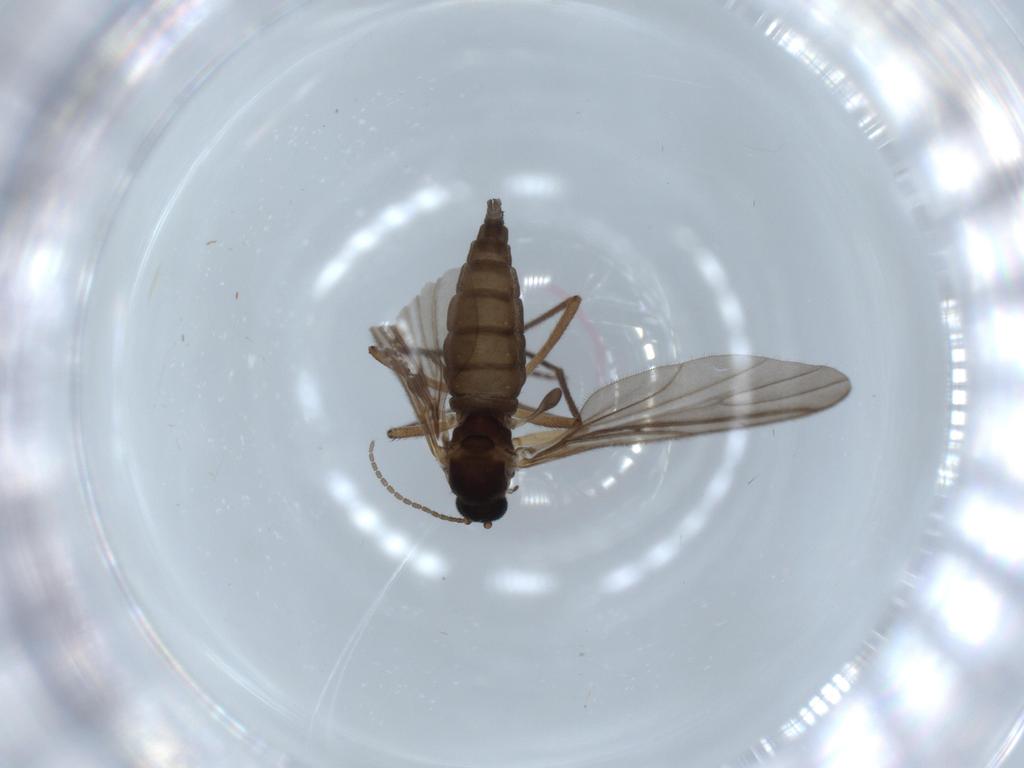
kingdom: Animalia
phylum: Arthropoda
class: Insecta
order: Diptera
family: Sciaridae
